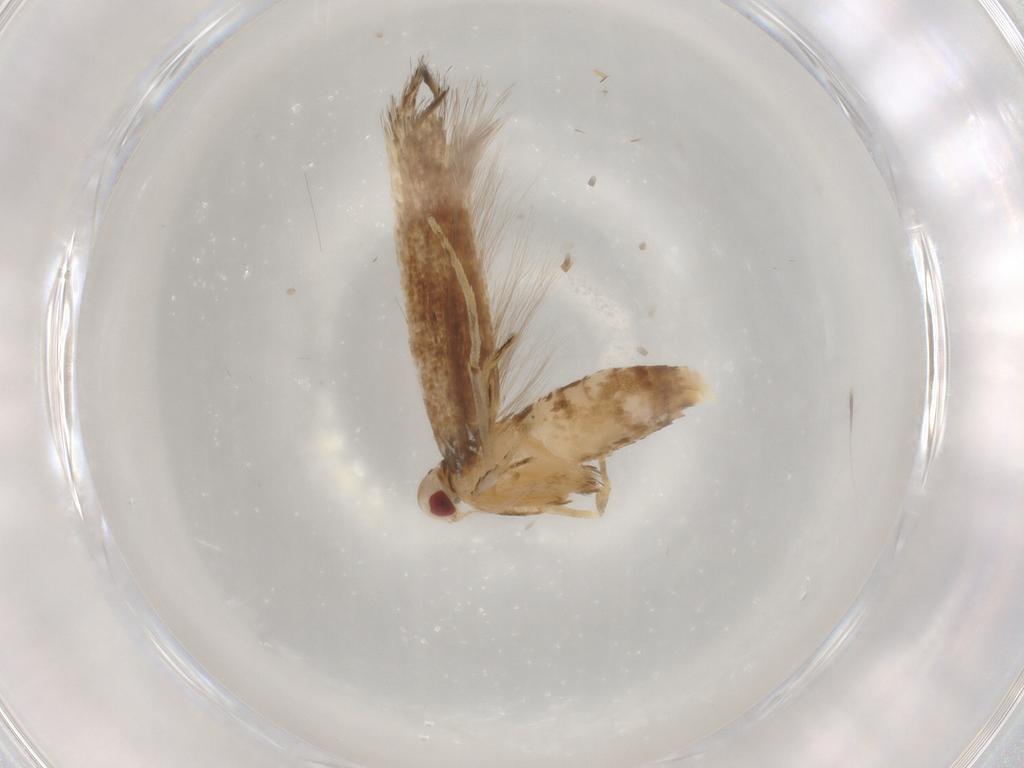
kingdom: Animalia
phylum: Arthropoda
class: Insecta
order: Lepidoptera
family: Cosmopterigidae
